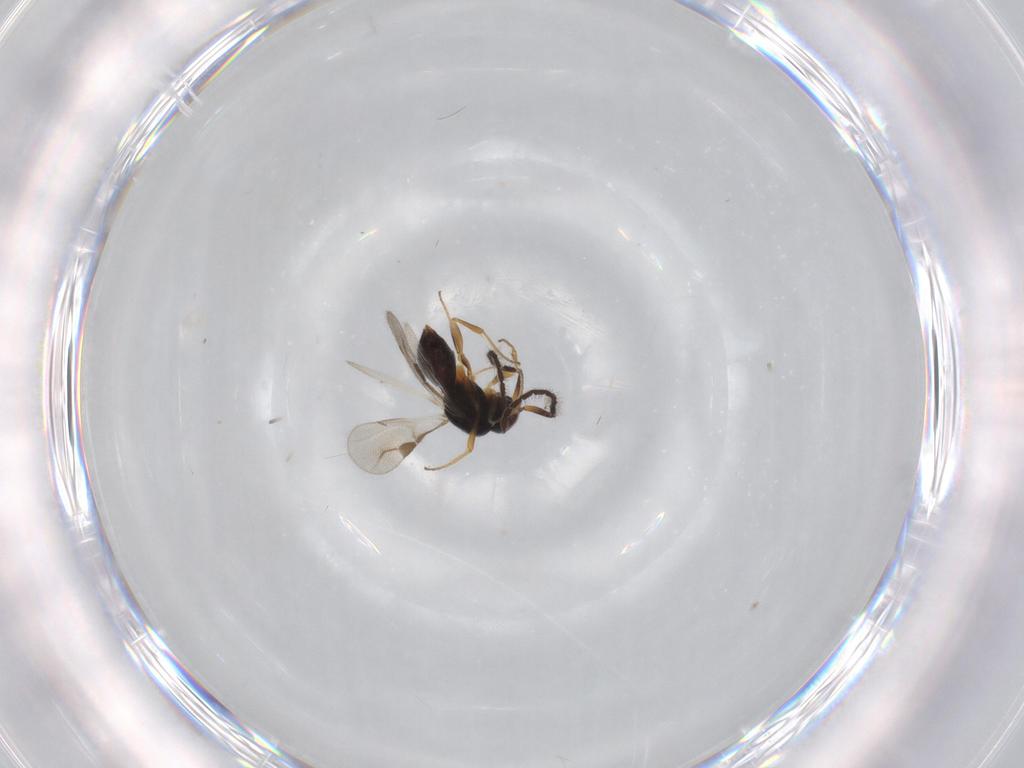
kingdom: Animalia
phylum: Arthropoda
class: Insecta
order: Hymenoptera
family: Megaspilidae
